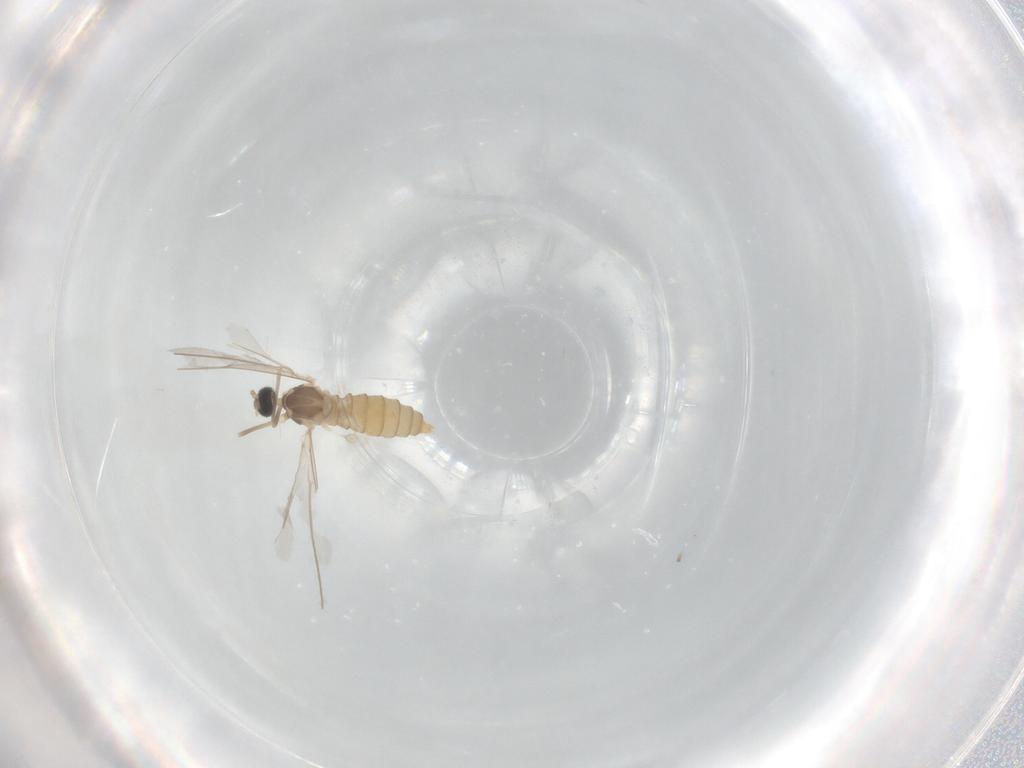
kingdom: Animalia
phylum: Arthropoda
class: Insecta
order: Diptera
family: Cecidomyiidae
